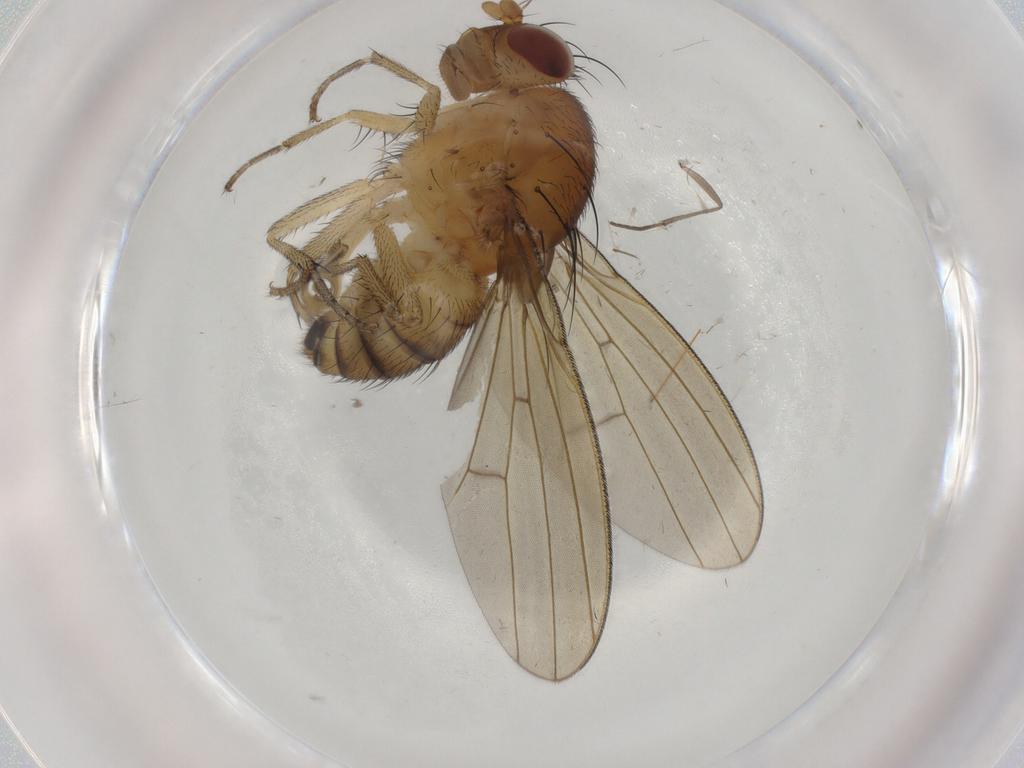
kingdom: Animalia
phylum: Arthropoda
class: Insecta
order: Diptera
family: Sciaridae
